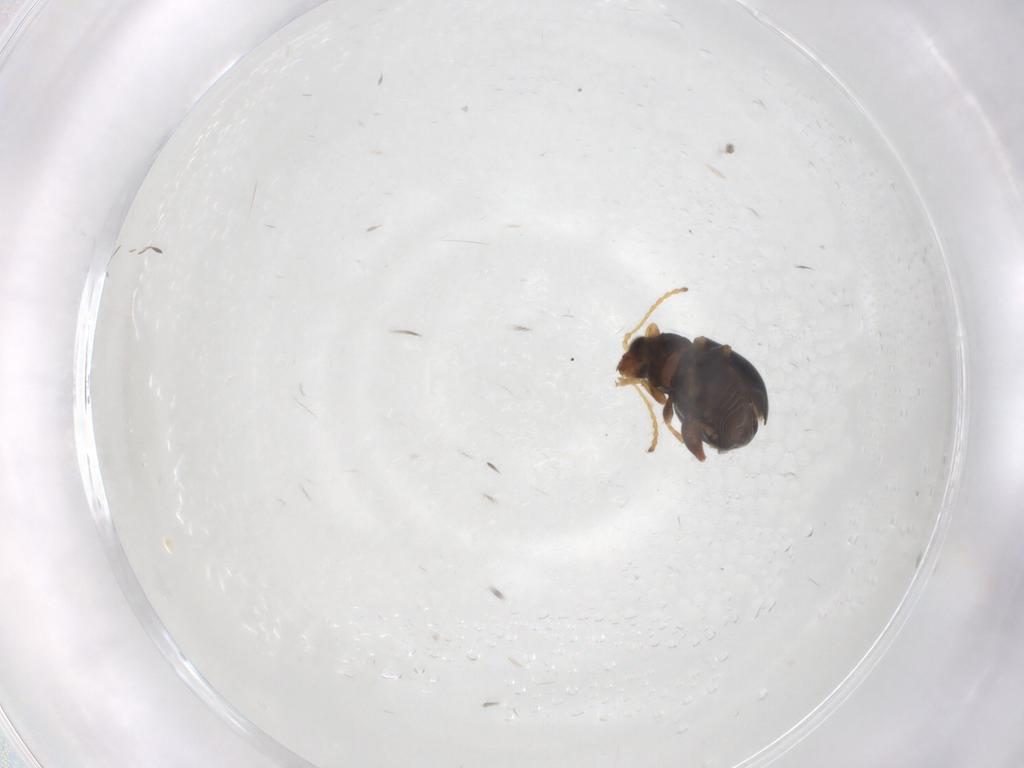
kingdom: Animalia
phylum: Arthropoda
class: Insecta
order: Coleoptera
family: Chrysomelidae
